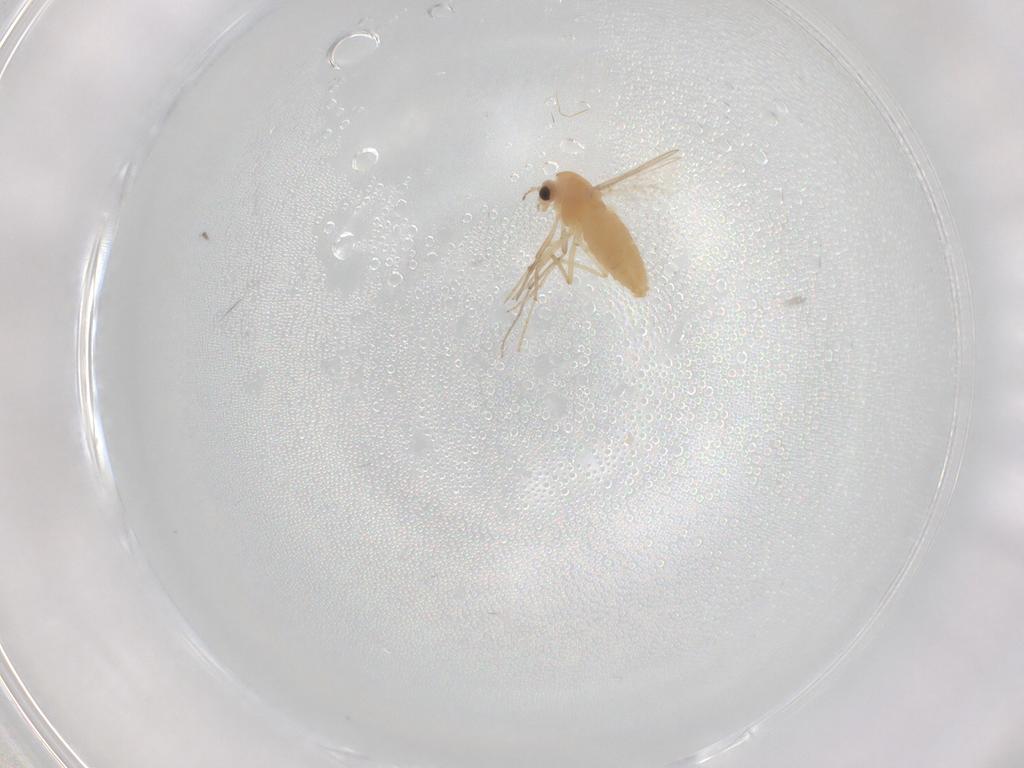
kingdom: Animalia
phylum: Arthropoda
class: Insecta
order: Diptera
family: Chironomidae
